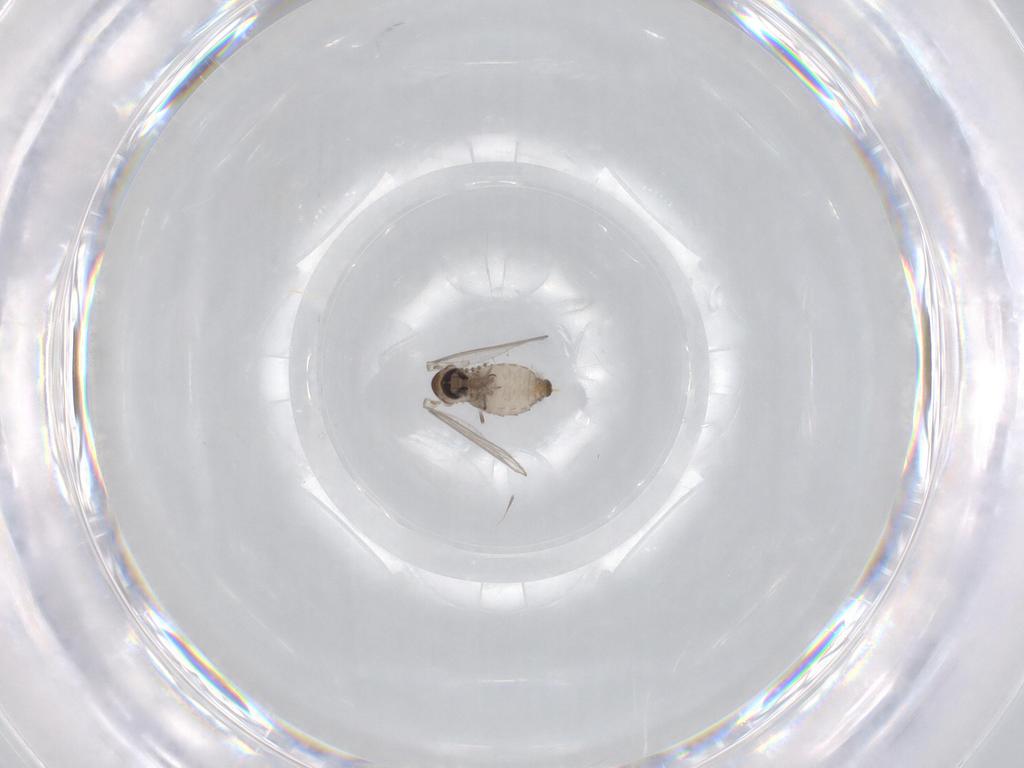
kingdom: Animalia
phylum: Arthropoda
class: Insecta
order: Diptera
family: Psychodidae
